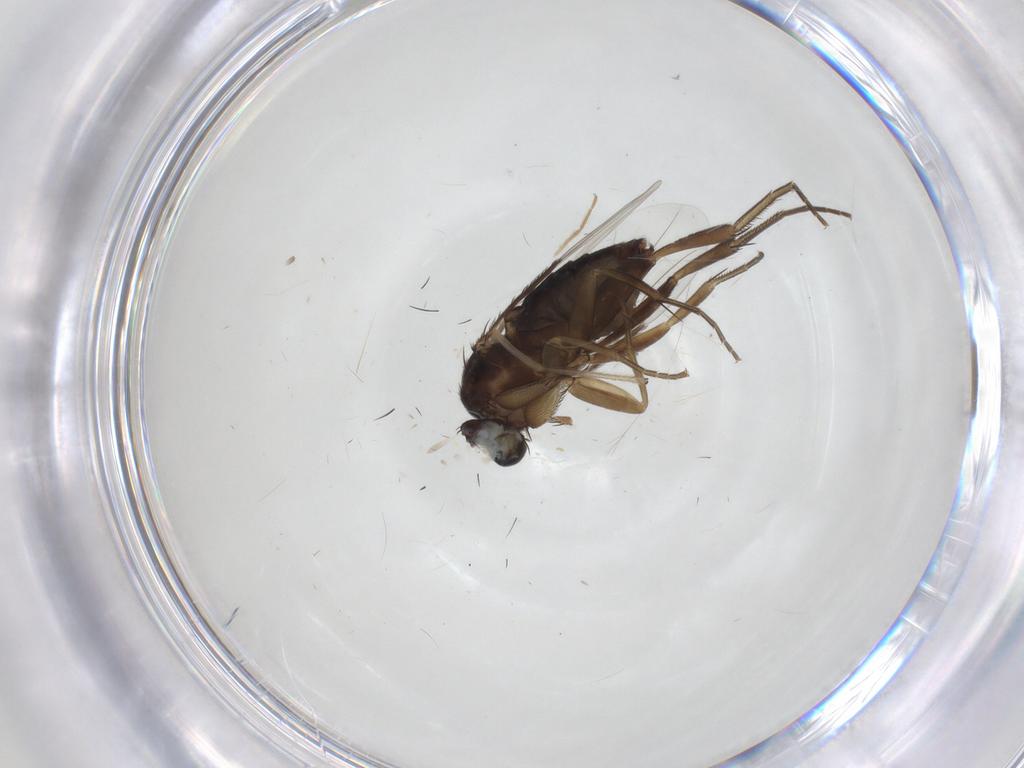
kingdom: Animalia
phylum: Arthropoda
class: Insecta
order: Diptera
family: Phoridae
